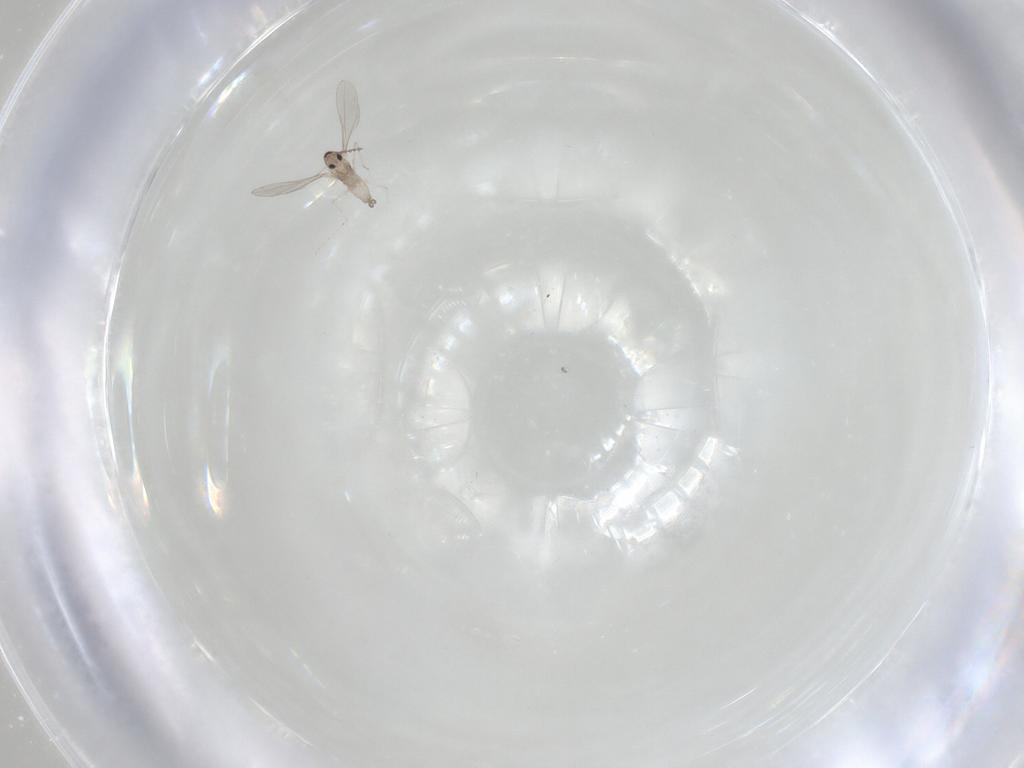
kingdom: Animalia
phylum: Arthropoda
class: Insecta
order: Diptera
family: Cecidomyiidae
